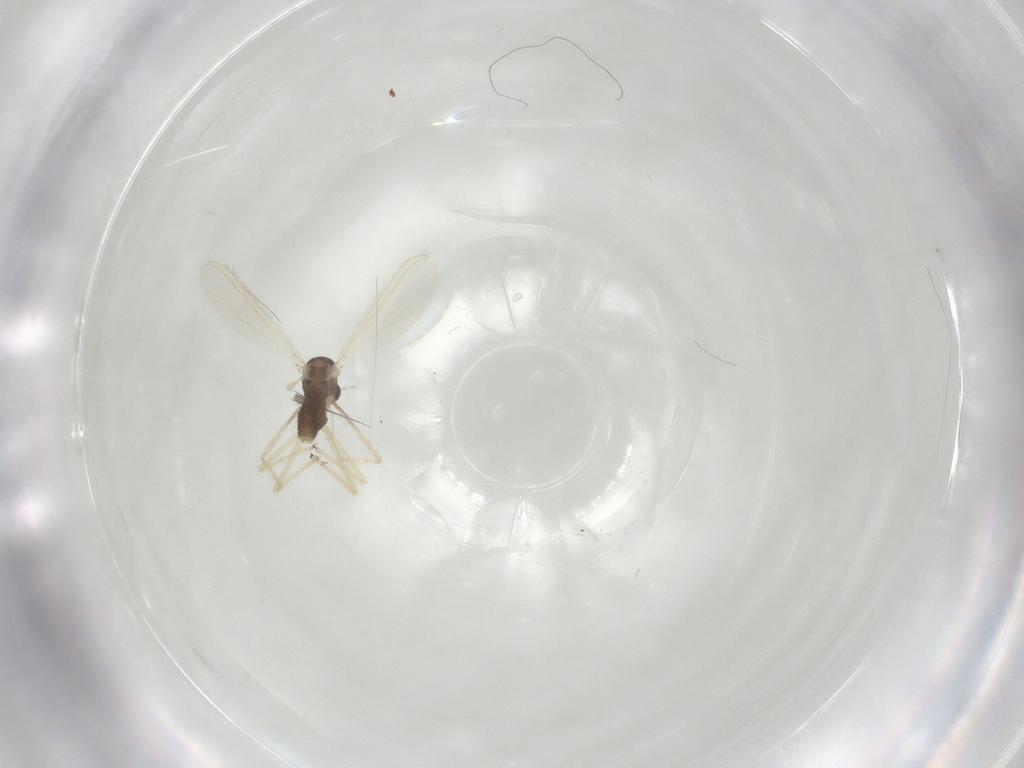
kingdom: Animalia
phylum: Arthropoda
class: Insecta
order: Diptera
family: Chironomidae
